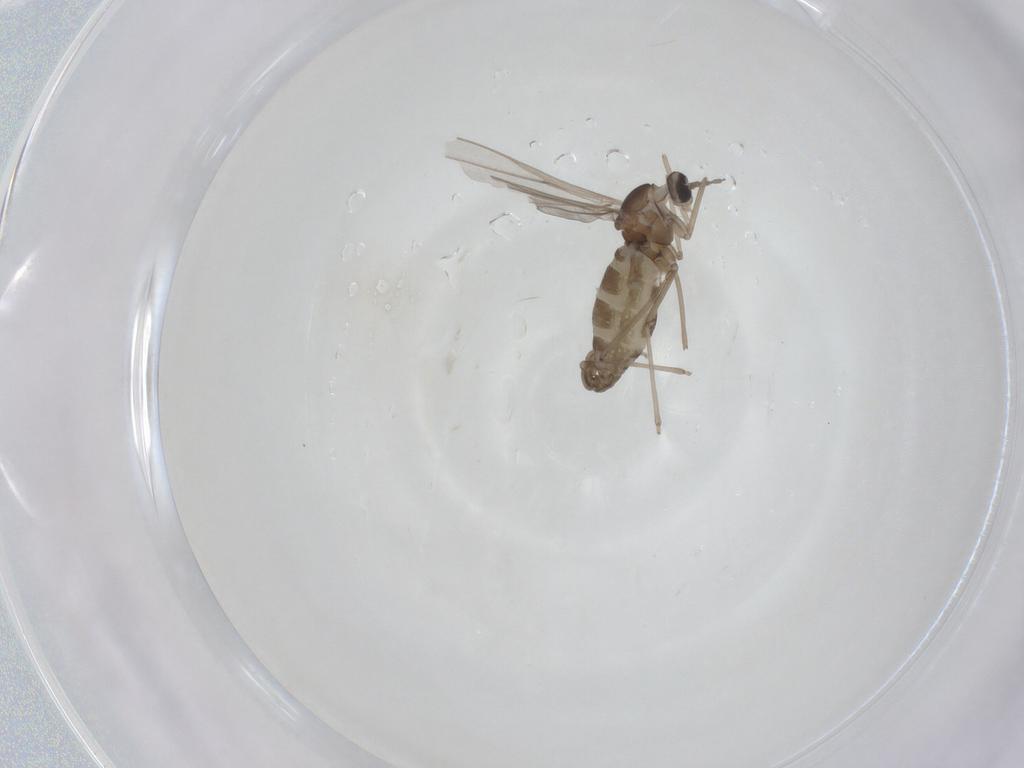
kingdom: Animalia
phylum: Arthropoda
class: Insecta
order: Diptera
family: Cecidomyiidae
